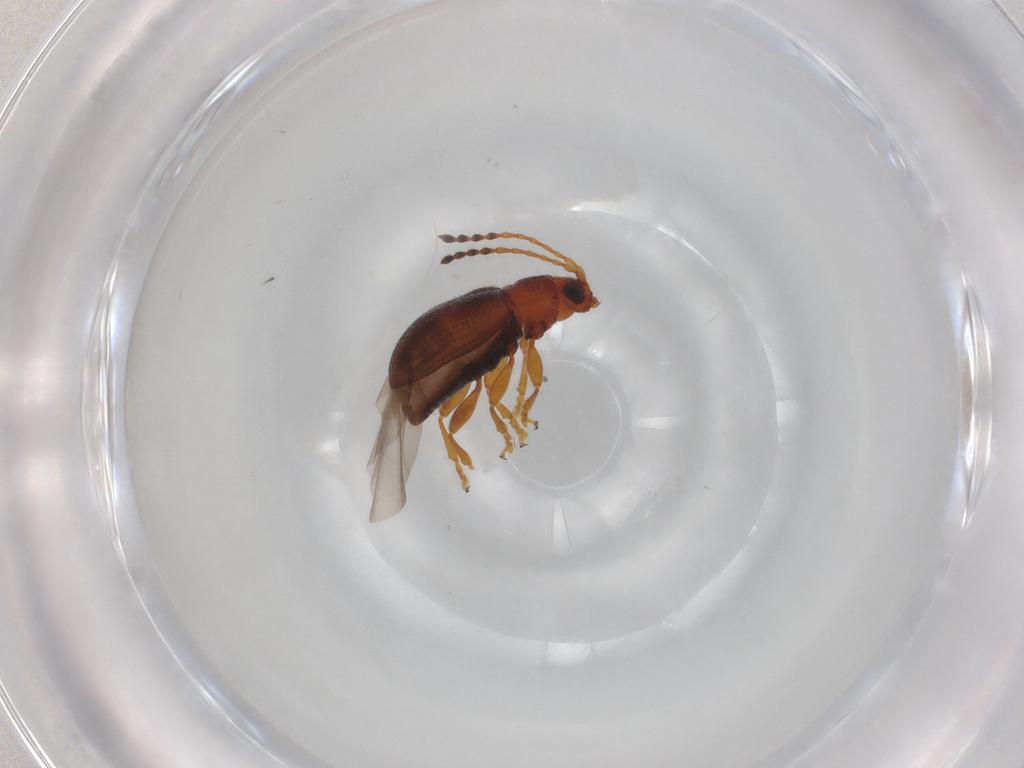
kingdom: Animalia
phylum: Arthropoda
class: Insecta
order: Coleoptera
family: Chrysomelidae
